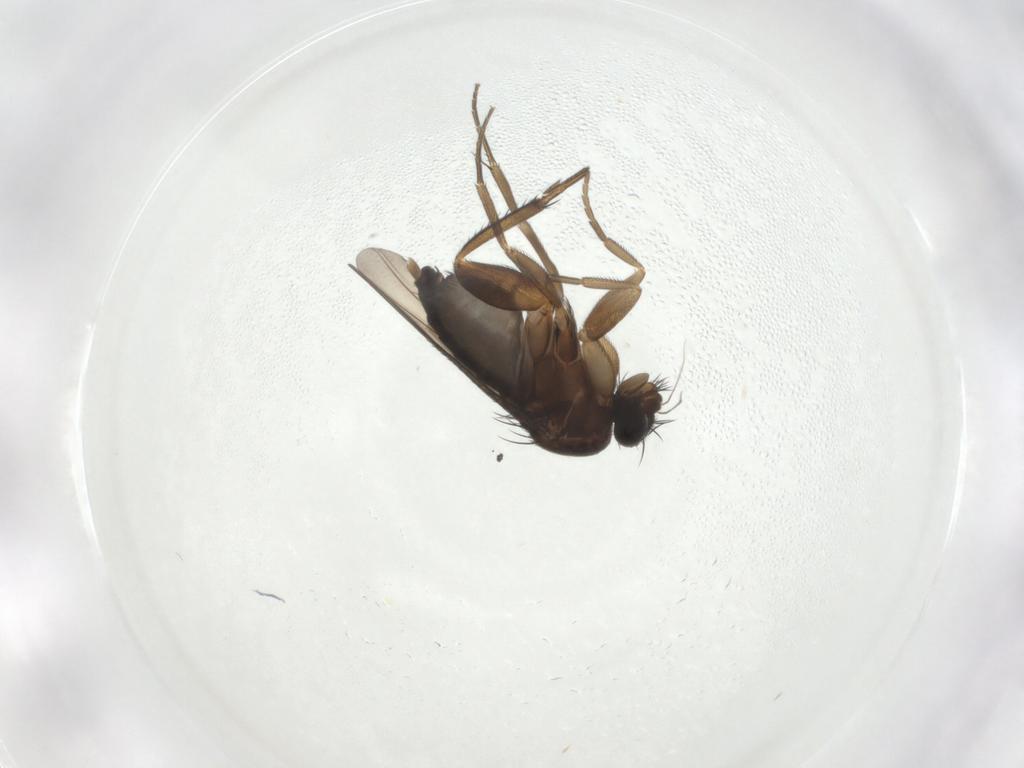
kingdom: Animalia
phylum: Arthropoda
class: Insecta
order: Diptera
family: Phoridae
